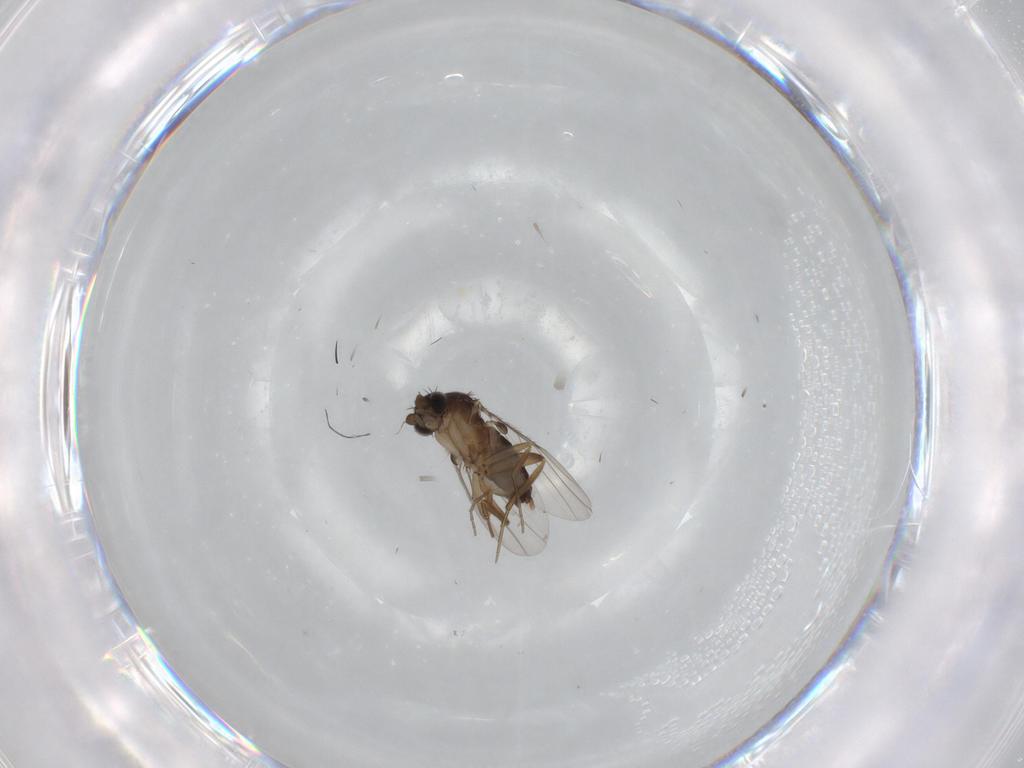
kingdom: Animalia
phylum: Arthropoda
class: Insecta
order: Diptera
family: Phoridae
